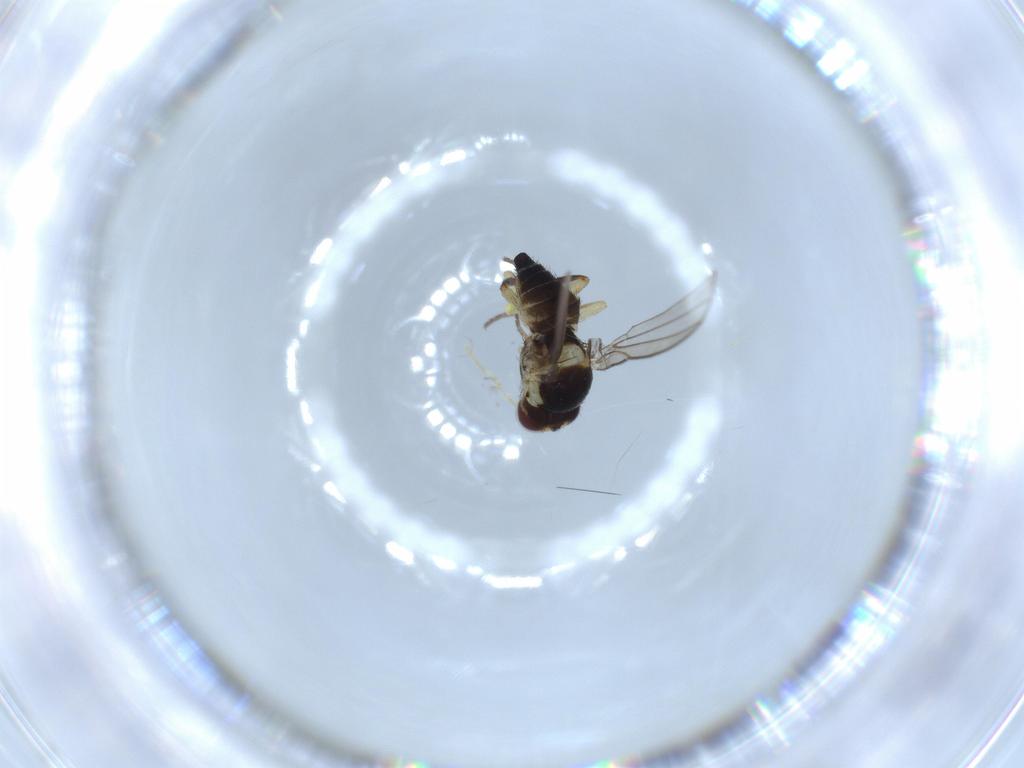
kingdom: Animalia
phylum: Arthropoda
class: Insecta
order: Diptera
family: Agromyzidae
